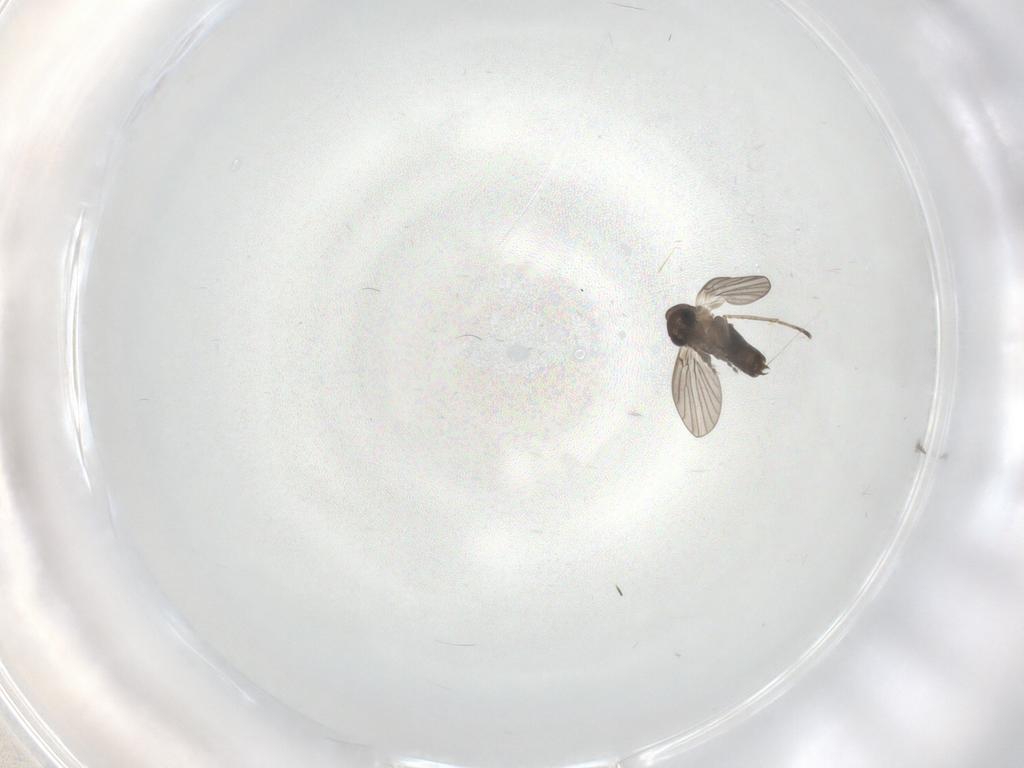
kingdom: Animalia
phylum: Arthropoda
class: Insecta
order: Diptera
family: Cecidomyiidae
